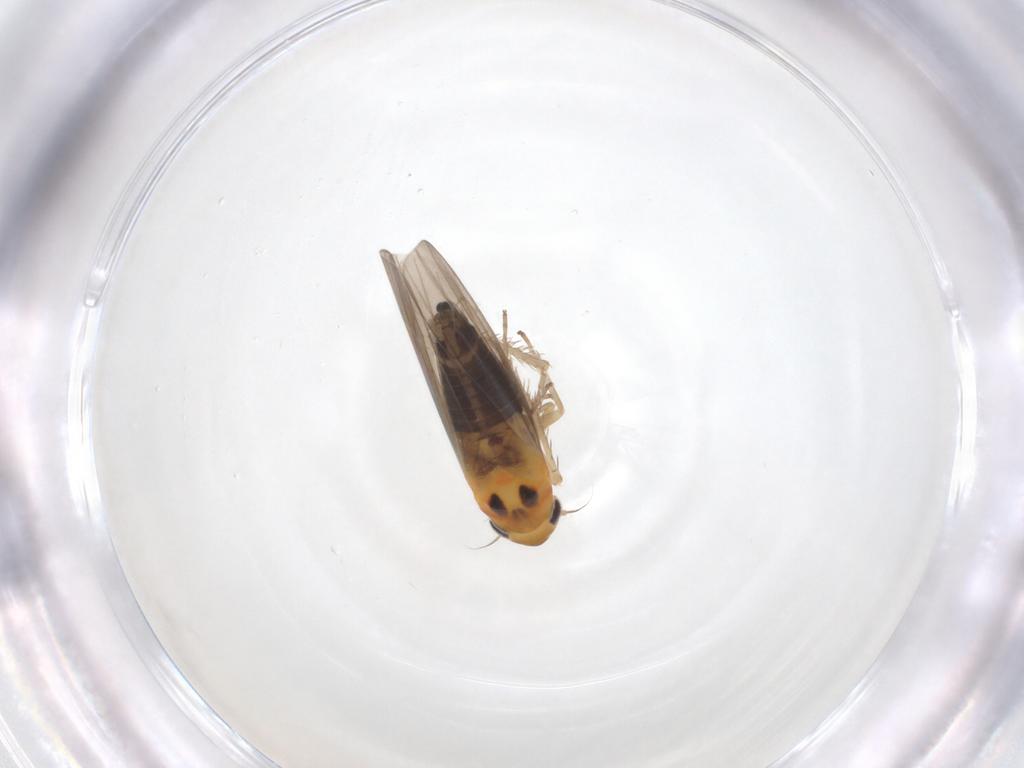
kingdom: Animalia
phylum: Arthropoda
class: Insecta
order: Hemiptera
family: Cicadellidae
